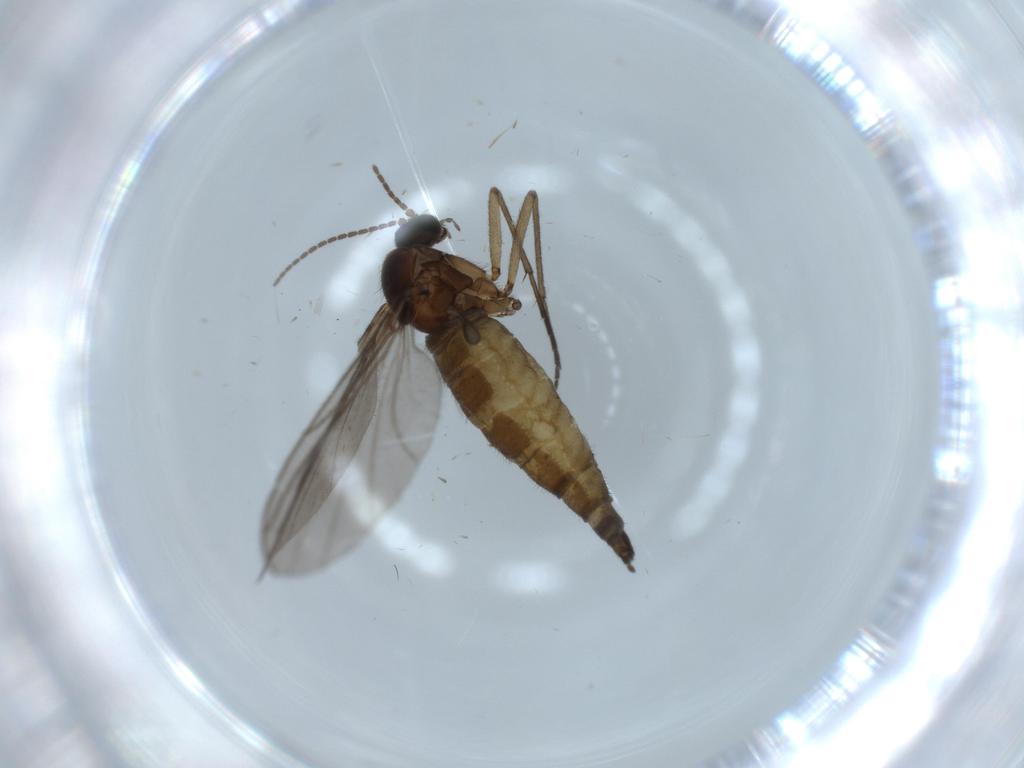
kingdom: Animalia
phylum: Arthropoda
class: Insecta
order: Diptera
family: Sciaridae
